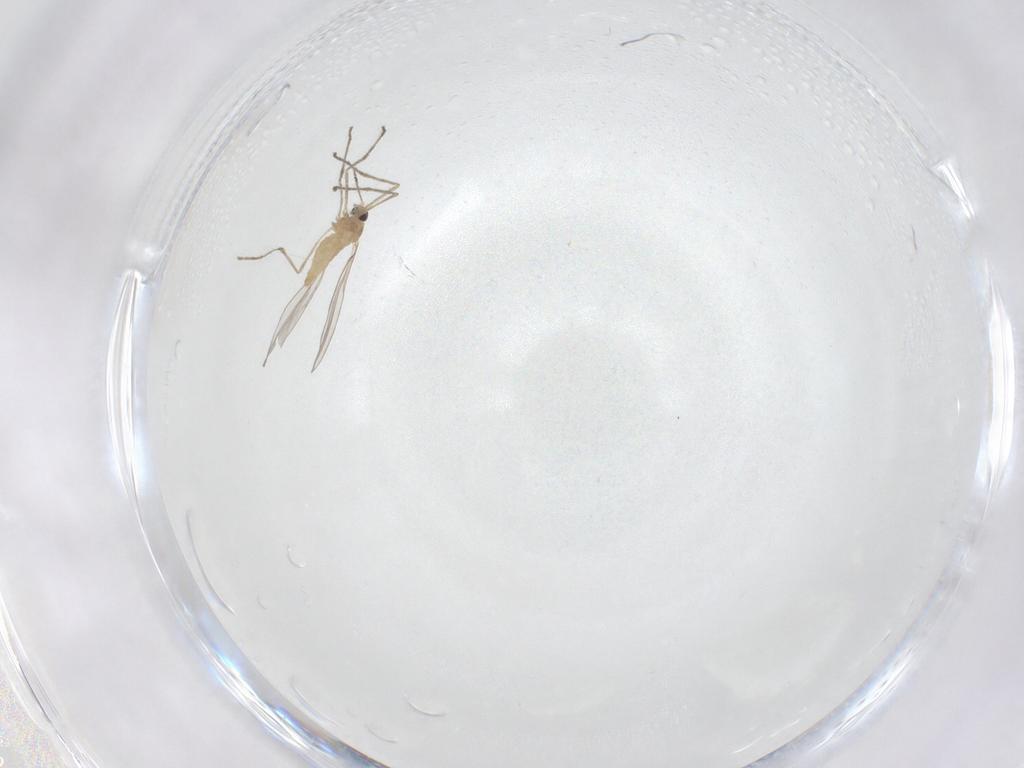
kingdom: Animalia
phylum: Arthropoda
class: Insecta
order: Diptera
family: Cecidomyiidae
